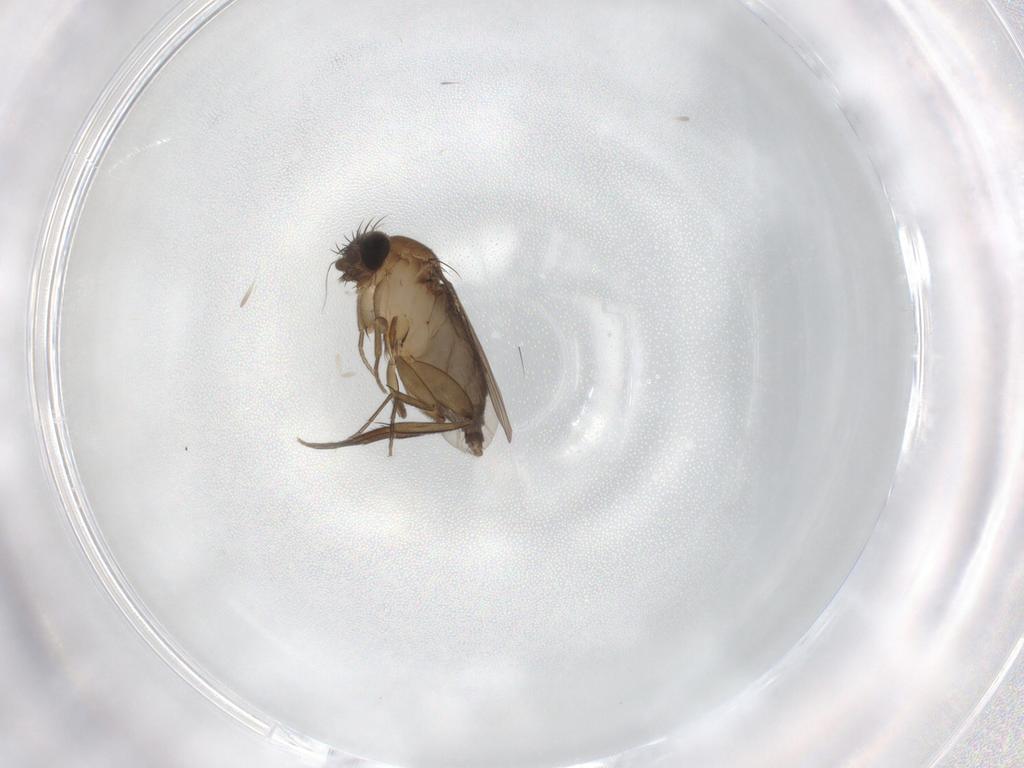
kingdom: Animalia
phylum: Arthropoda
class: Insecta
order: Diptera
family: Phoridae
